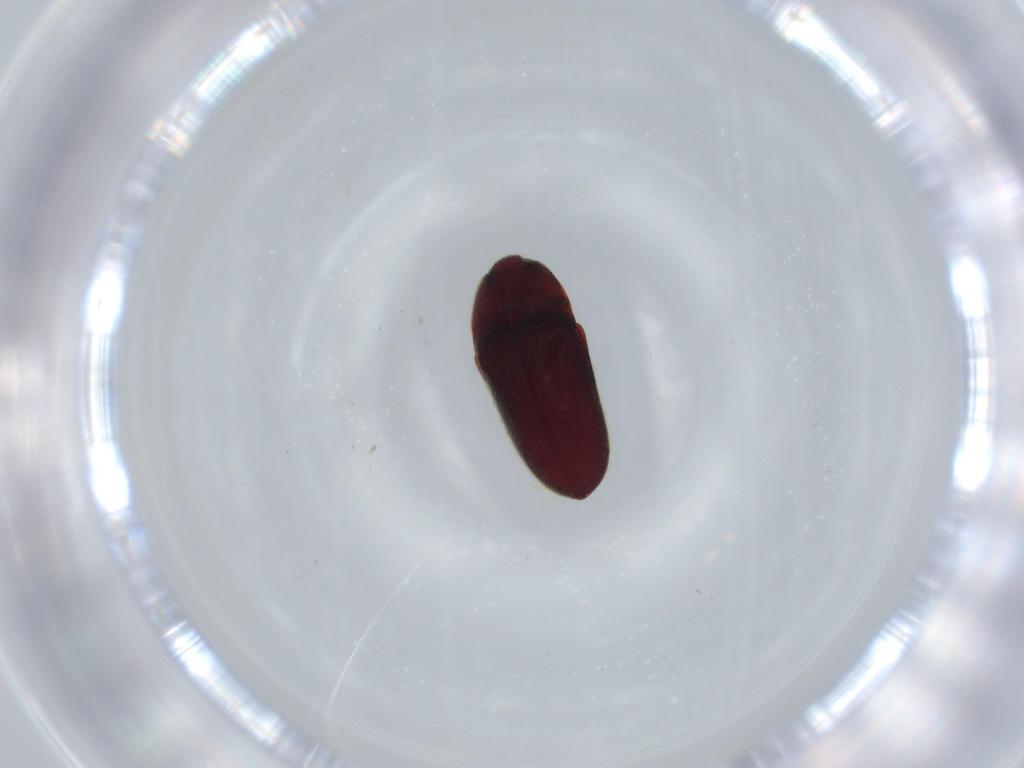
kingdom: Animalia
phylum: Arthropoda
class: Insecta
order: Coleoptera
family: Throscidae
